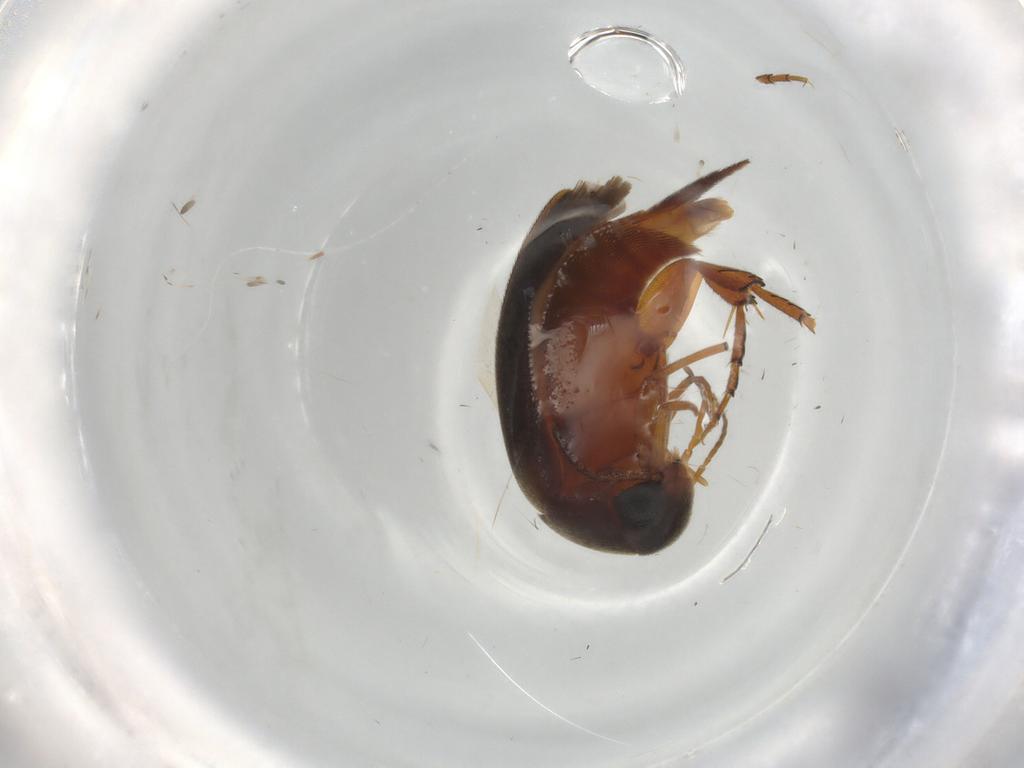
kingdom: Animalia
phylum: Arthropoda
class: Insecta
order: Coleoptera
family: Mordellidae
